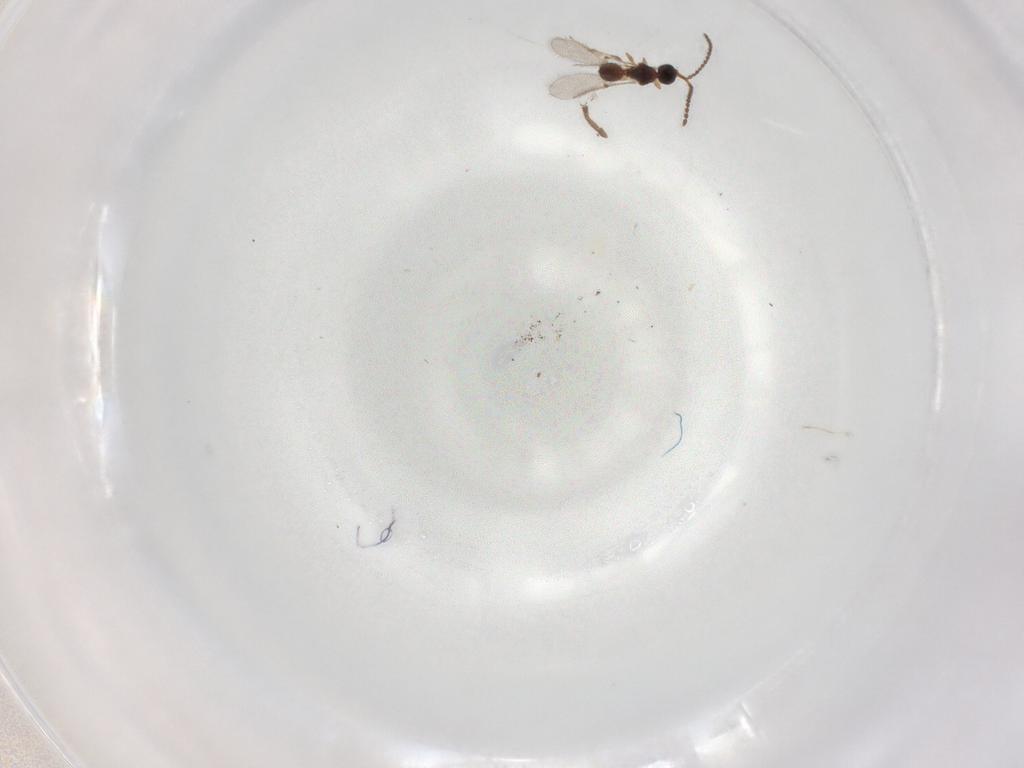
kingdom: Animalia
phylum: Arthropoda
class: Insecta
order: Hymenoptera
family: Diapriidae
